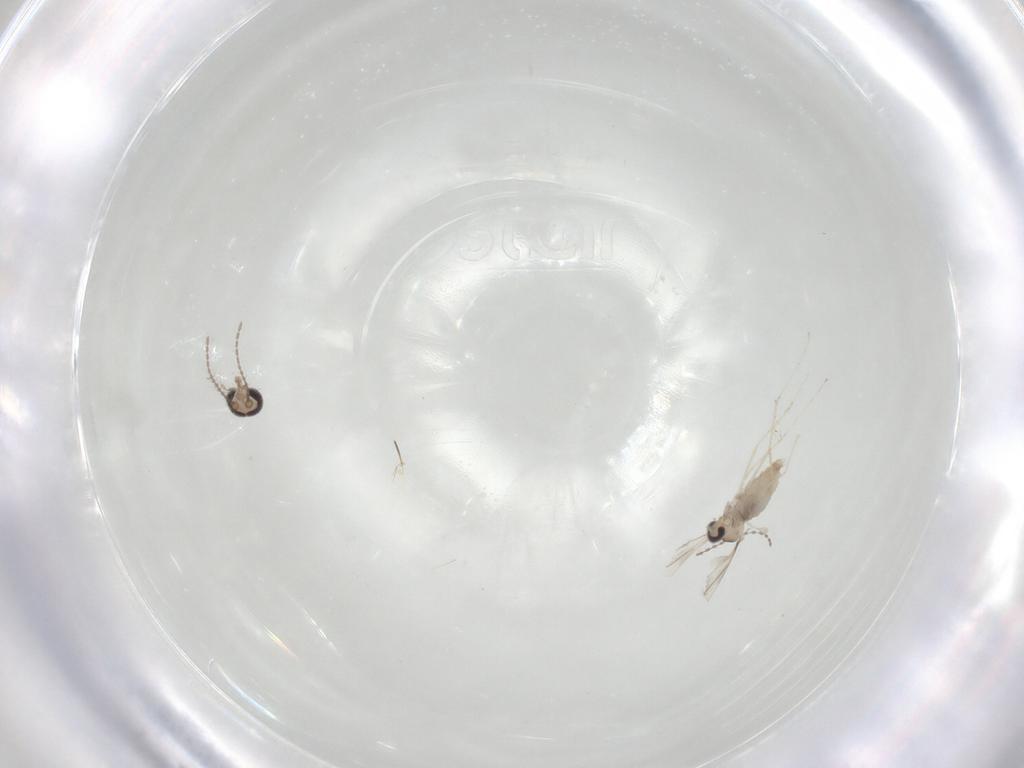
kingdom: Animalia
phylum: Arthropoda
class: Insecta
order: Diptera
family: Ceratopogonidae
